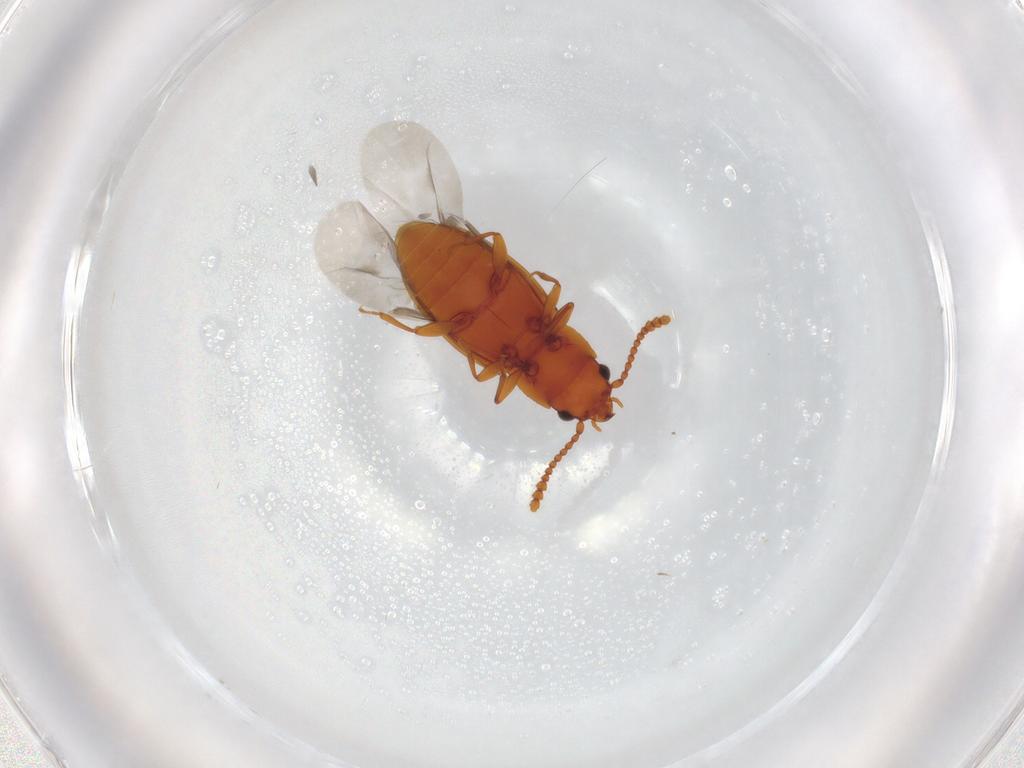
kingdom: Animalia
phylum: Arthropoda
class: Insecta
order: Coleoptera
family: Laemophloeidae
